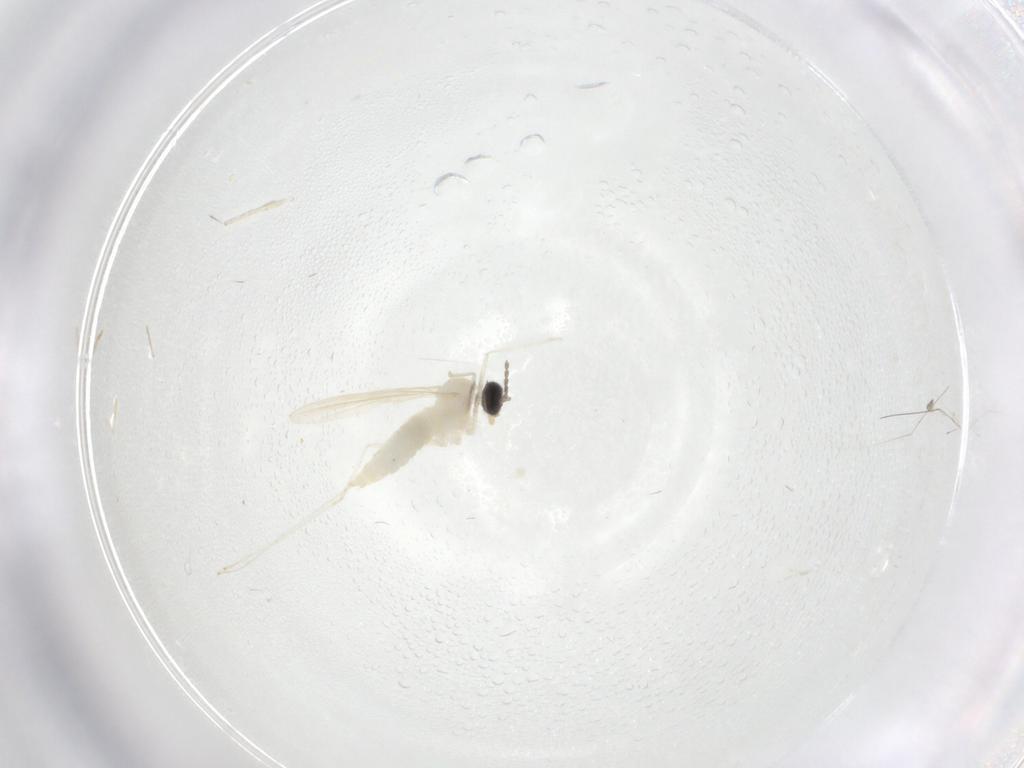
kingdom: Animalia
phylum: Arthropoda
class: Insecta
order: Diptera
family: Cecidomyiidae
